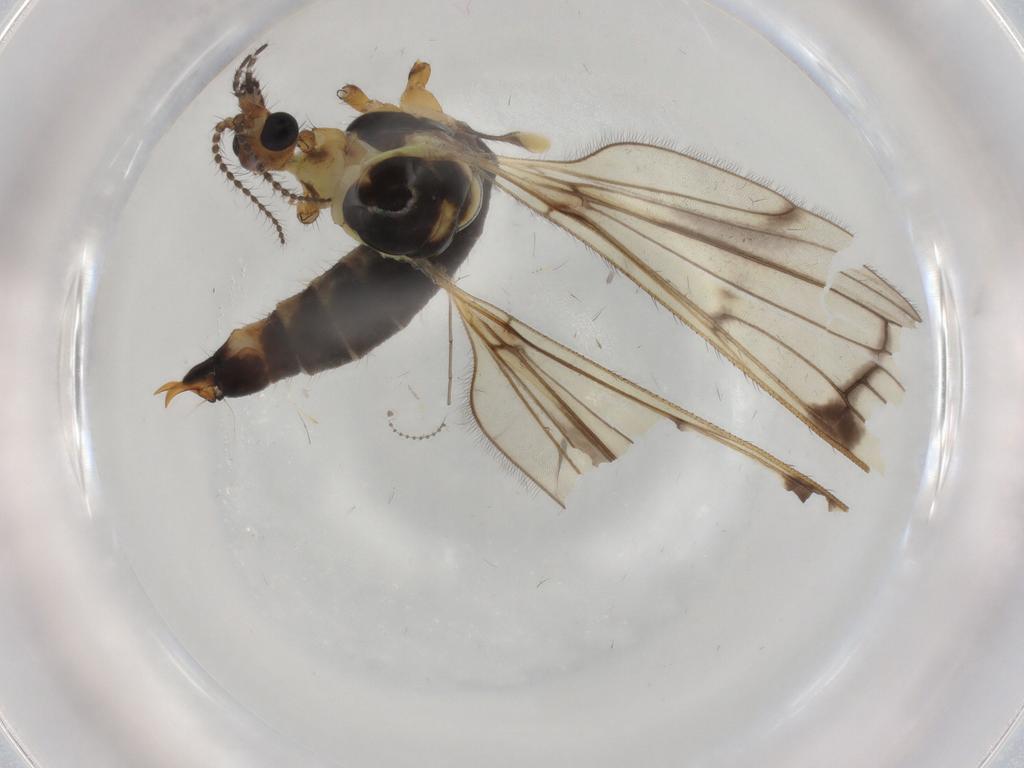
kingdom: Animalia
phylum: Arthropoda
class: Insecta
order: Diptera
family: Limoniidae
